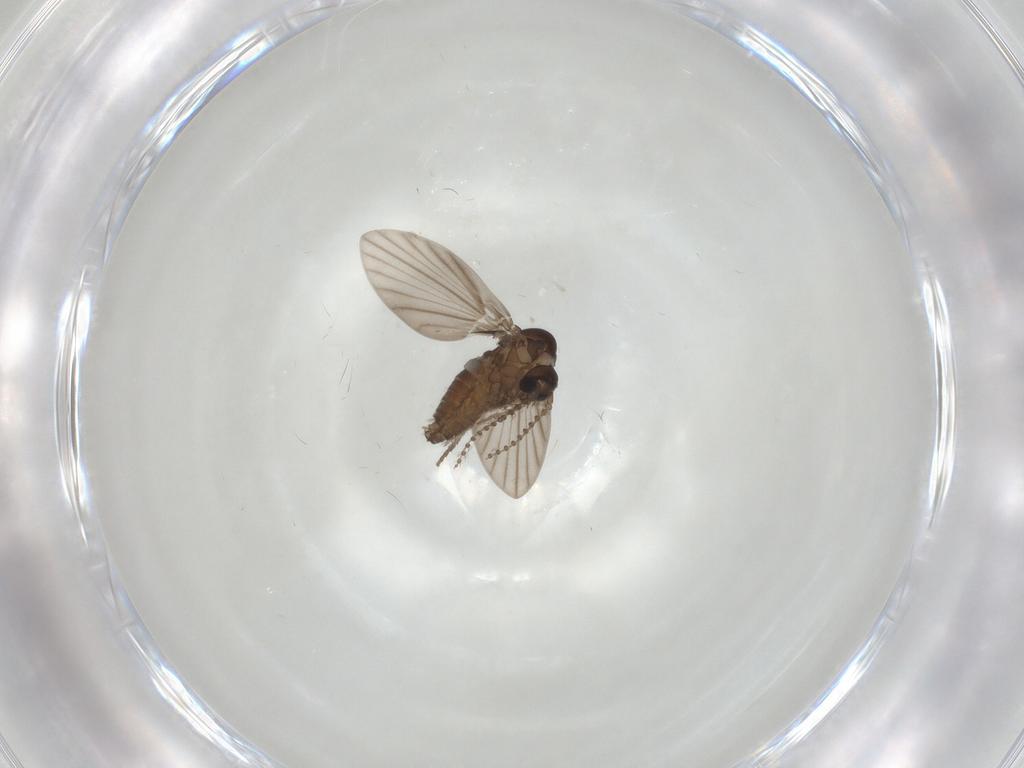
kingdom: Animalia
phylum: Arthropoda
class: Insecta
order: Diptera
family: Psychodidae
